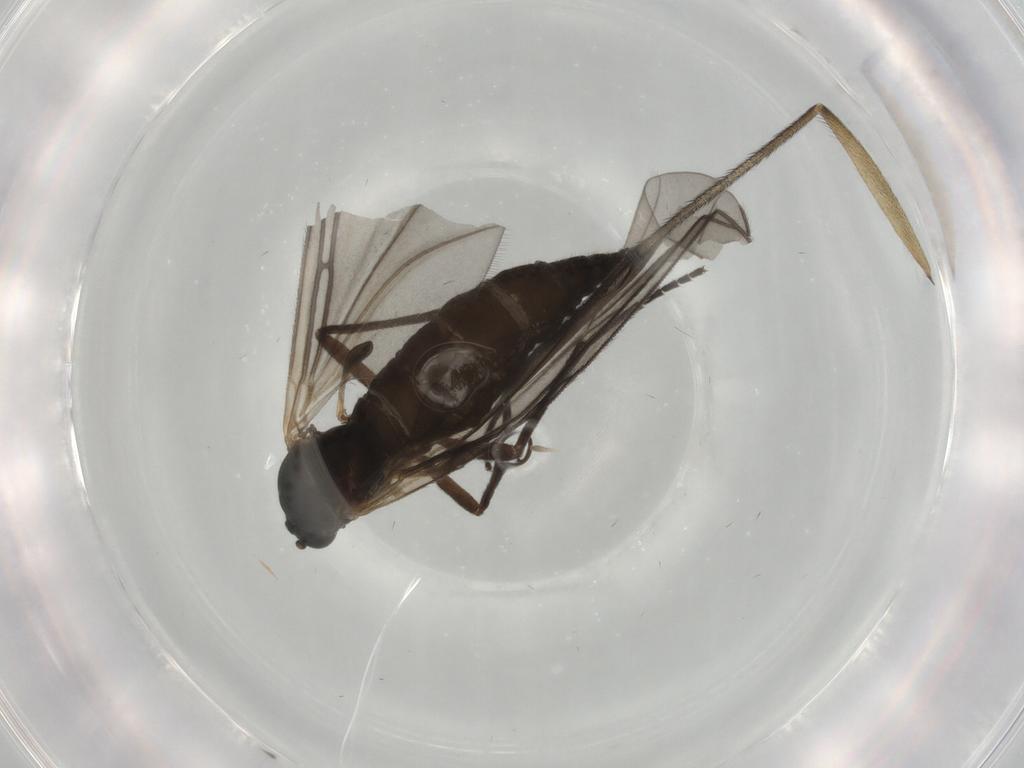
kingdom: Animalia
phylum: Arthropoda
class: Insecta
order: Diptera
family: Sciaridae
